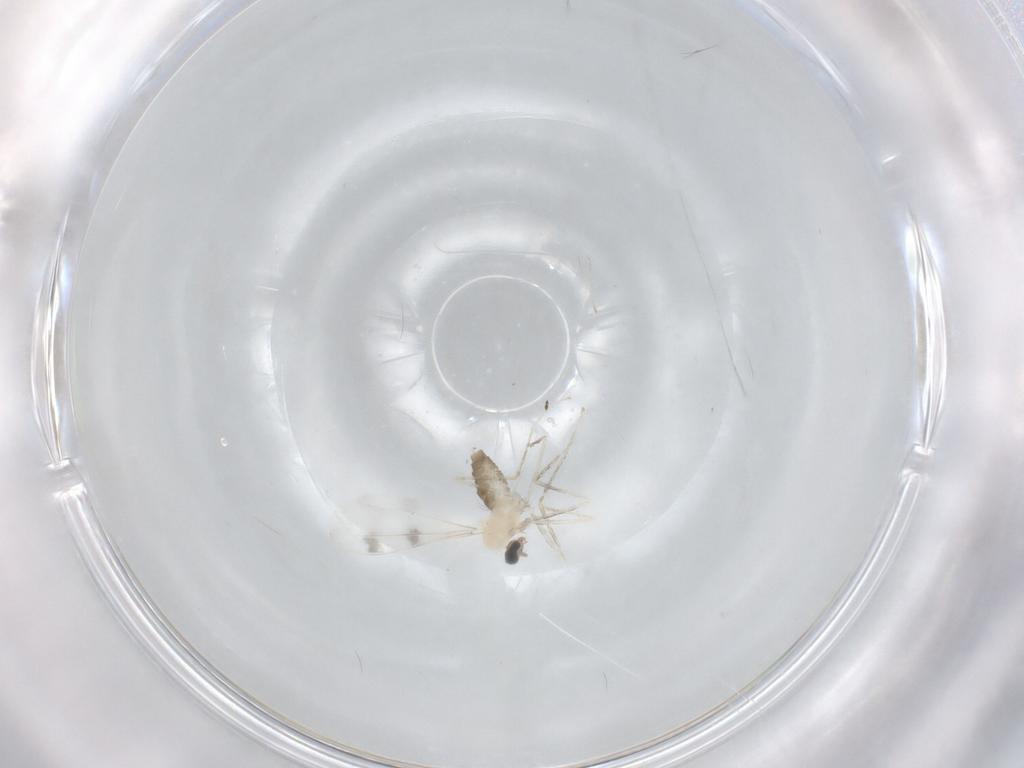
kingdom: Animalia
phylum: Arthropoda
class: Insecta
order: Diptera
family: Cecidomyiidae
